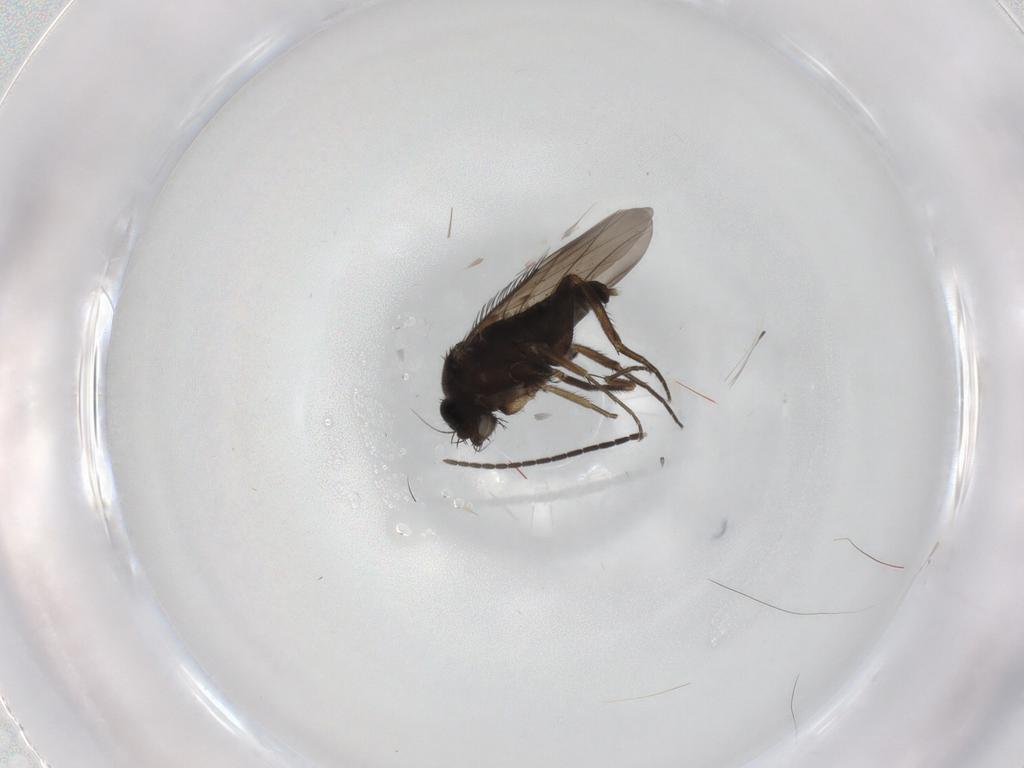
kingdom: Animalia
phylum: Arthropoda
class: Insecta
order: Diptera
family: Phoridae
